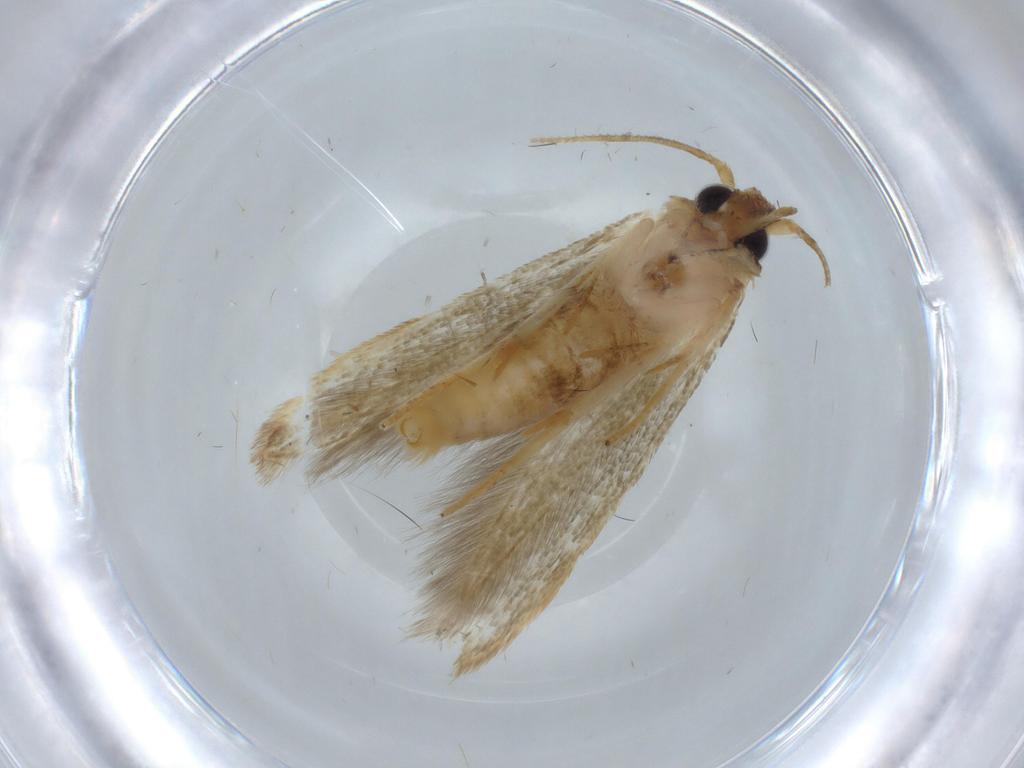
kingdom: Animalia
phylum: Arthropoda
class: Insecta
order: Lepidoptera
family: Blastobasidae
